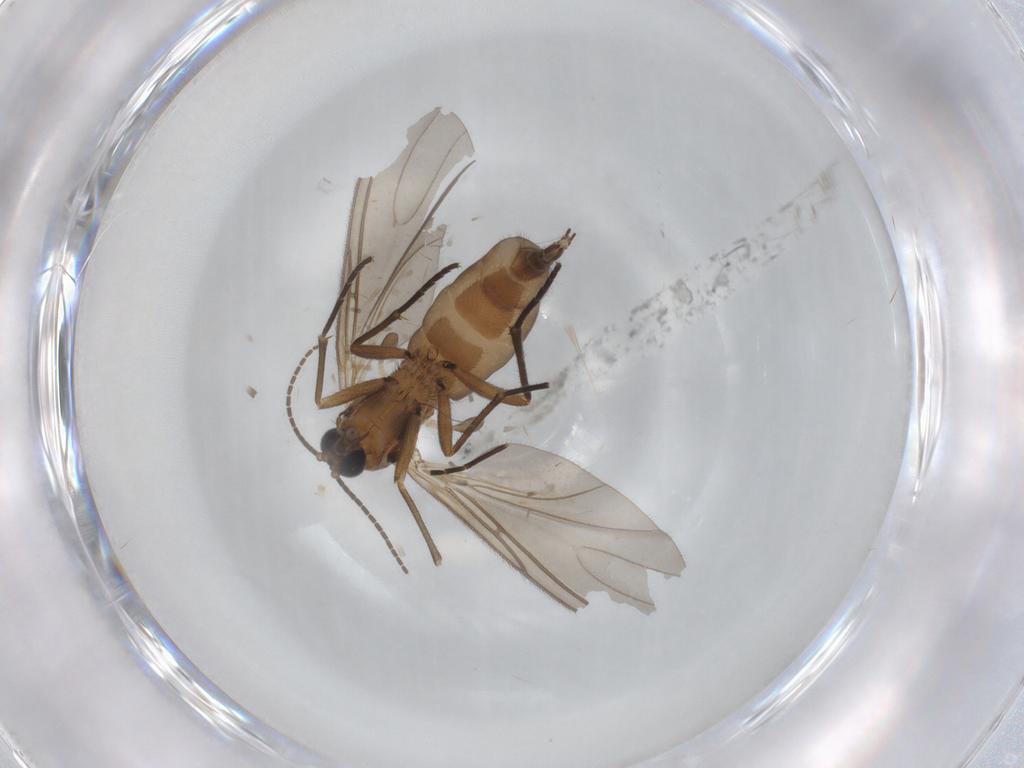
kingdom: Animalia
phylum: Arthropoda
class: Insecta
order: Diptera
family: Sciaridae
